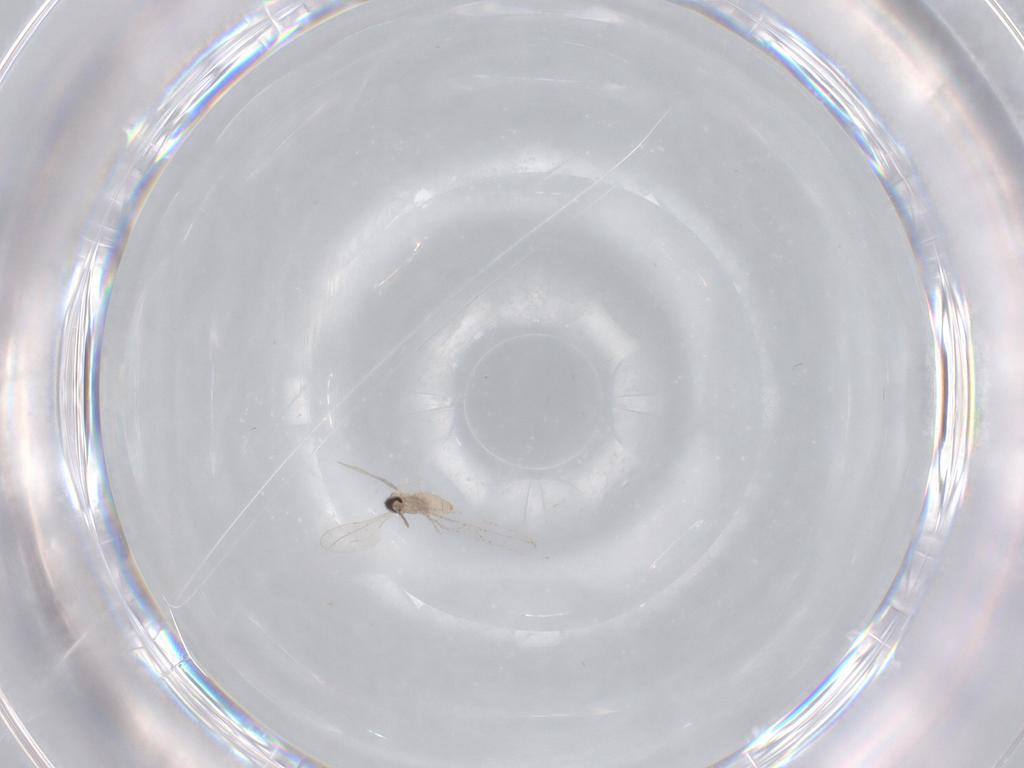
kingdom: Animalia
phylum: Arthropoda
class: Insecta
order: Diptera
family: Cecidomyiidae
